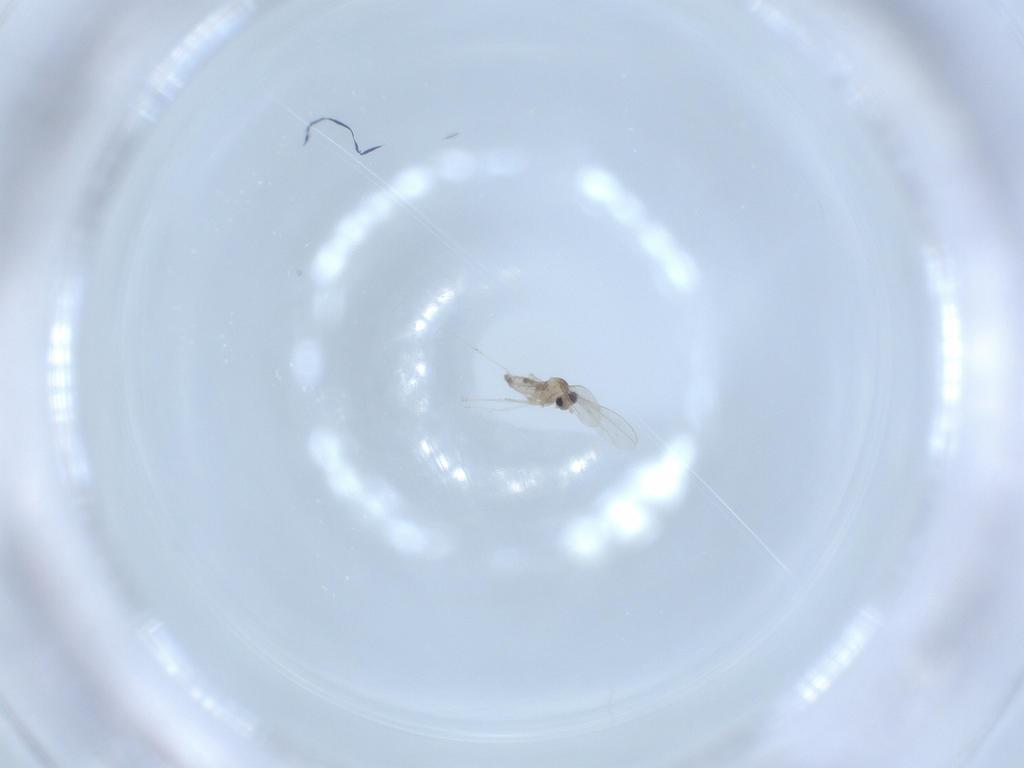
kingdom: Animalia
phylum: Arthropoda
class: Insecta
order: Diptera
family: Cecidomyiidae
